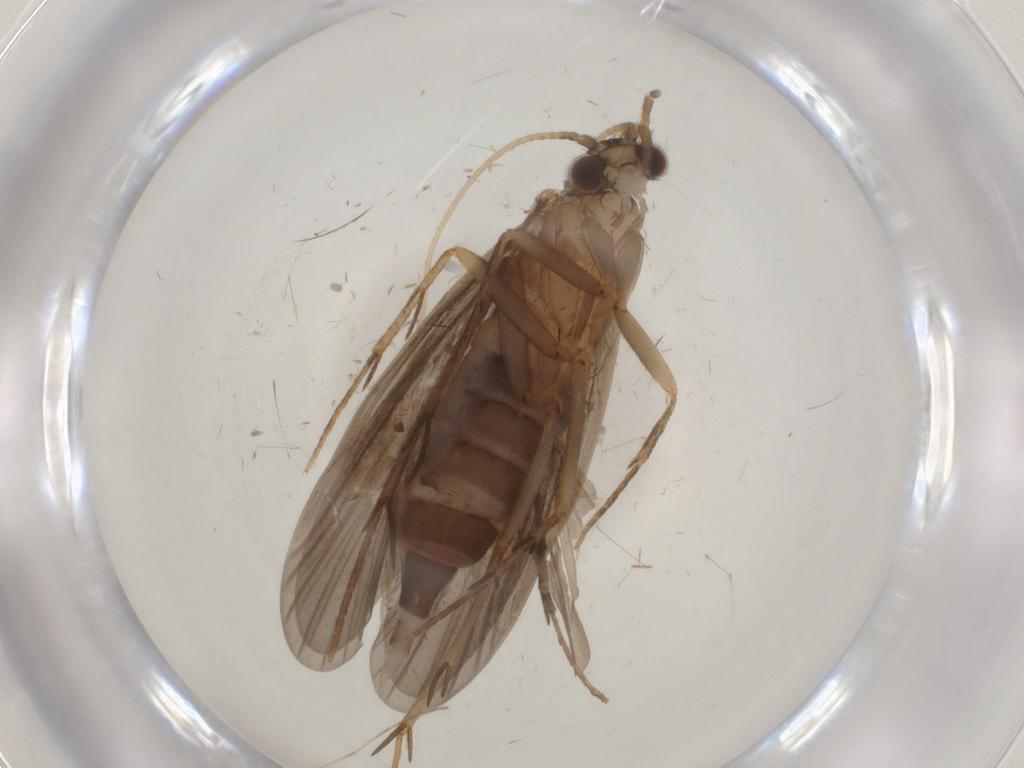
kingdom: Animalia
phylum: Arthropoda
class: Insecta
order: Trichoptera
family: Philopotamidae
